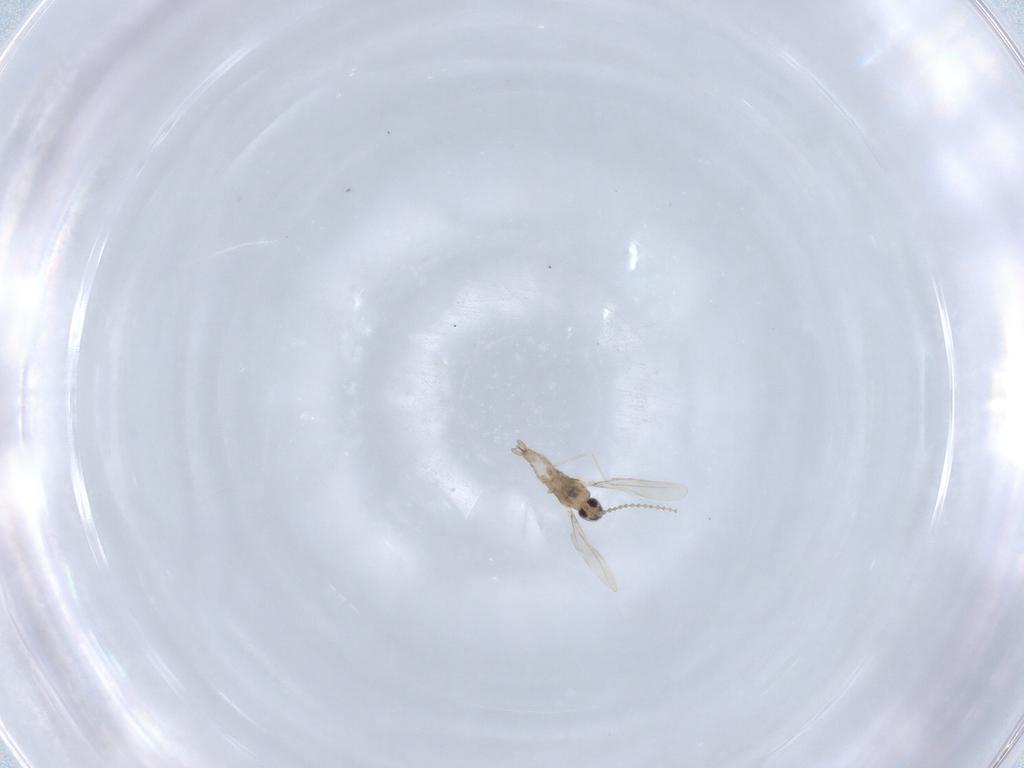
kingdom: Animalia
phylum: Arthropoda
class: Insecta
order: Diptera
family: Cecidomyiidae
